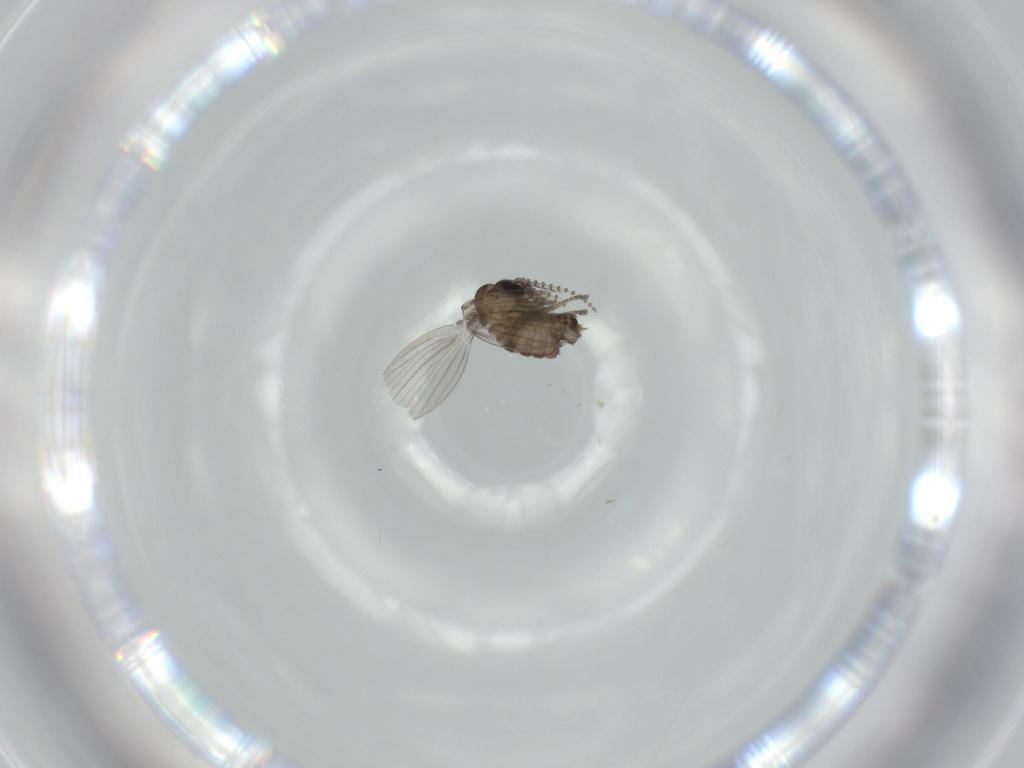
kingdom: Animalia
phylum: Arthropoda
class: Insecta
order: Diptera
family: Psychodidae
